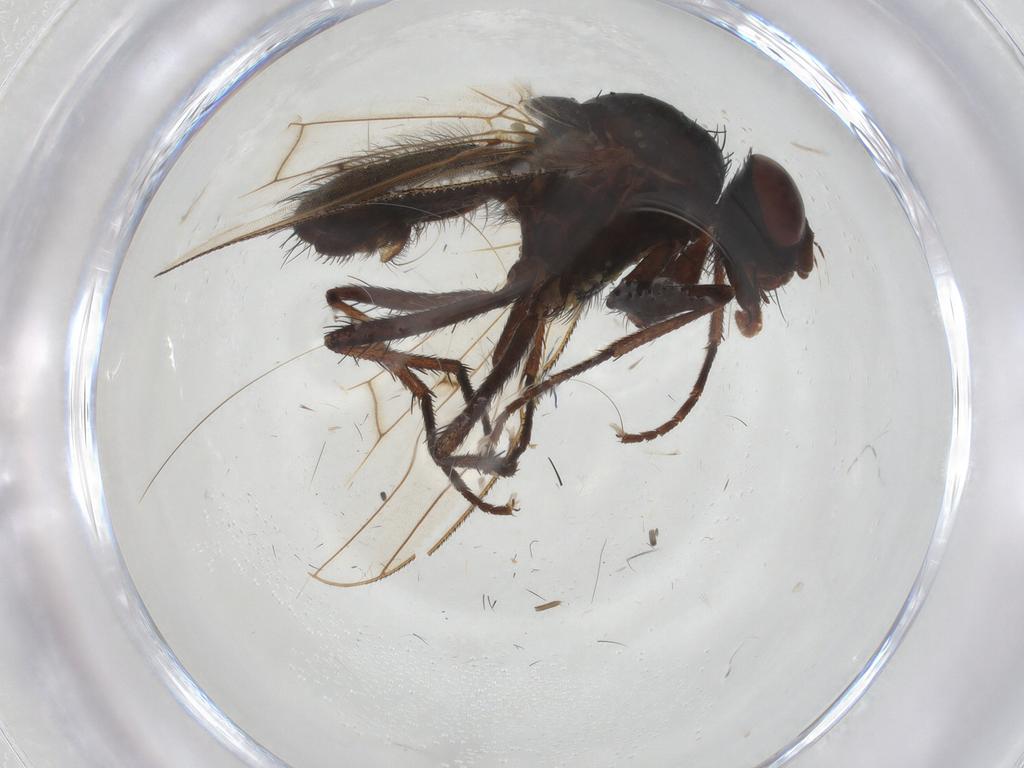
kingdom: Animalia
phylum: Arthropoda
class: Insecta
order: Diptera
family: Anthomyiidae
